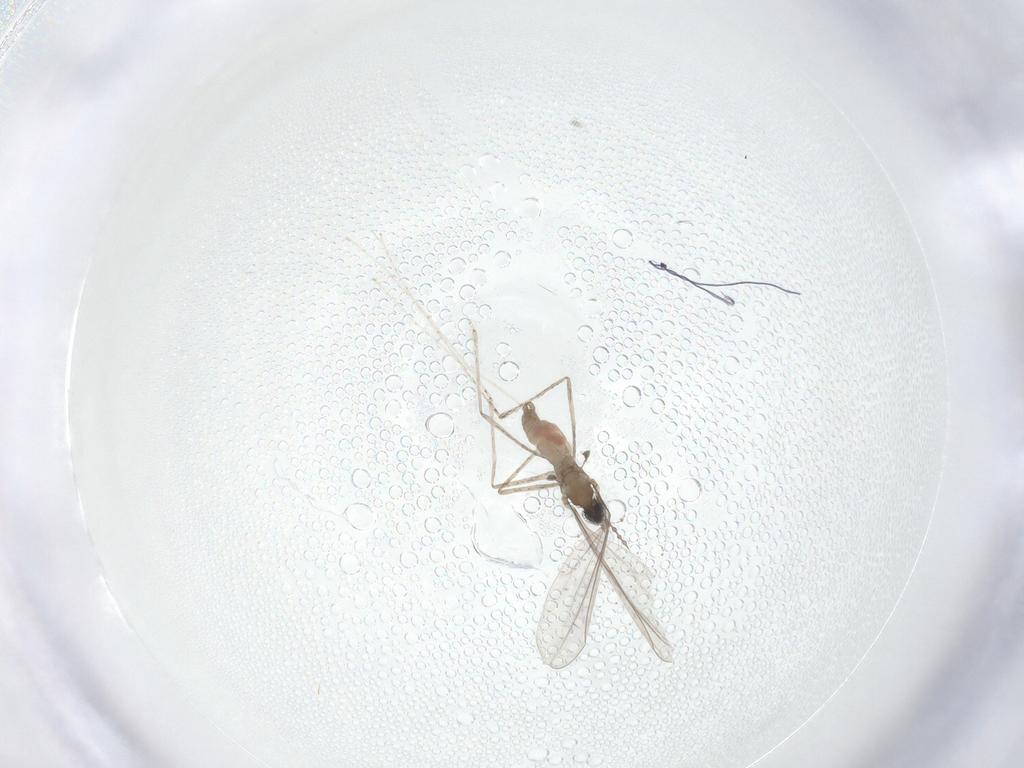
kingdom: Animalia
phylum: Arthropoda
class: Insecta
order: Diptera
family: Cecidomyiidae
